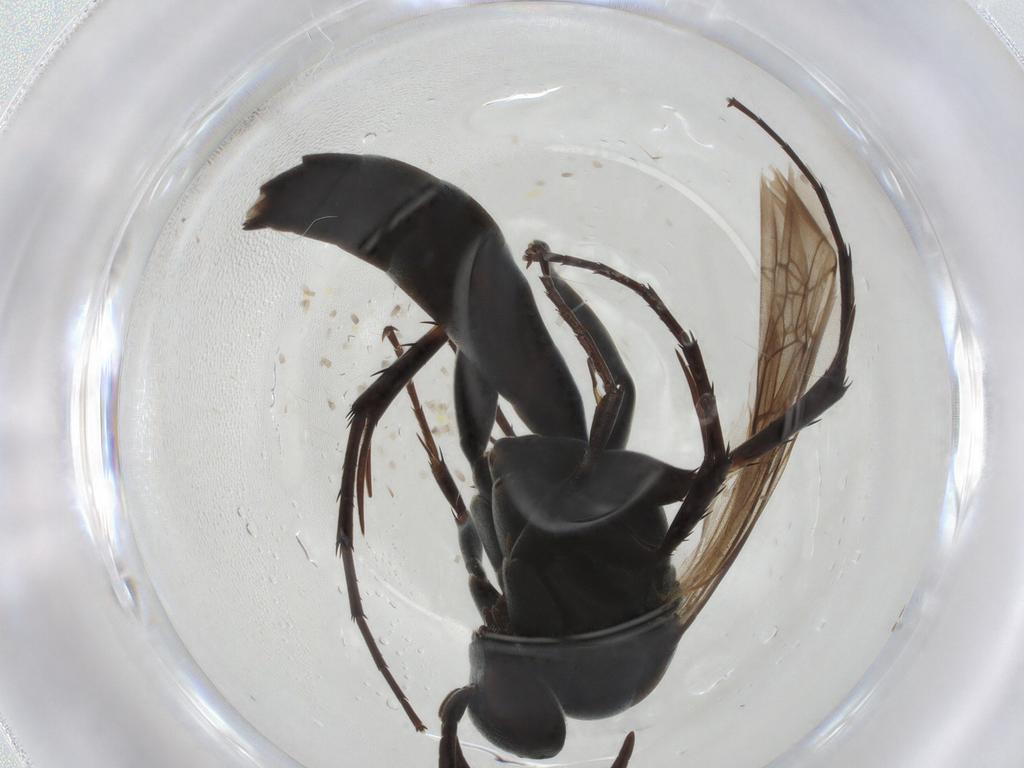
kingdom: Animalia
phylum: Arthropoda
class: Insecta
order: Hymenoptera
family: Pompilidae
